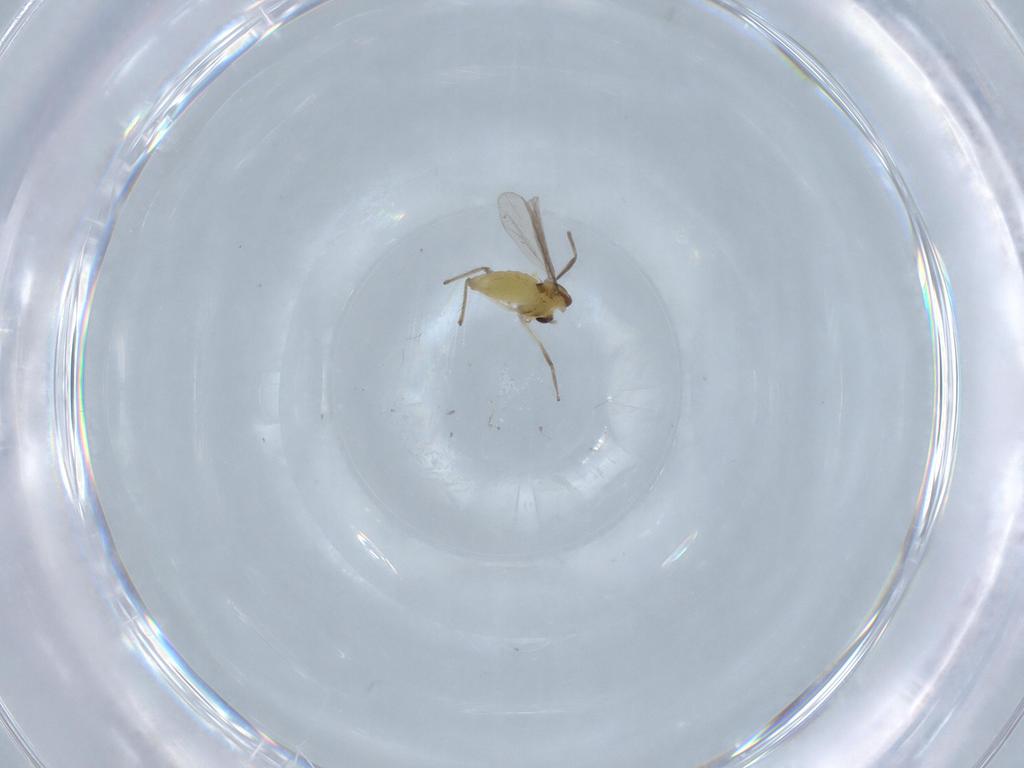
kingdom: Animalia
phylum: Arthropoda
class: Insecta
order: Diptera
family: Chironomidae
